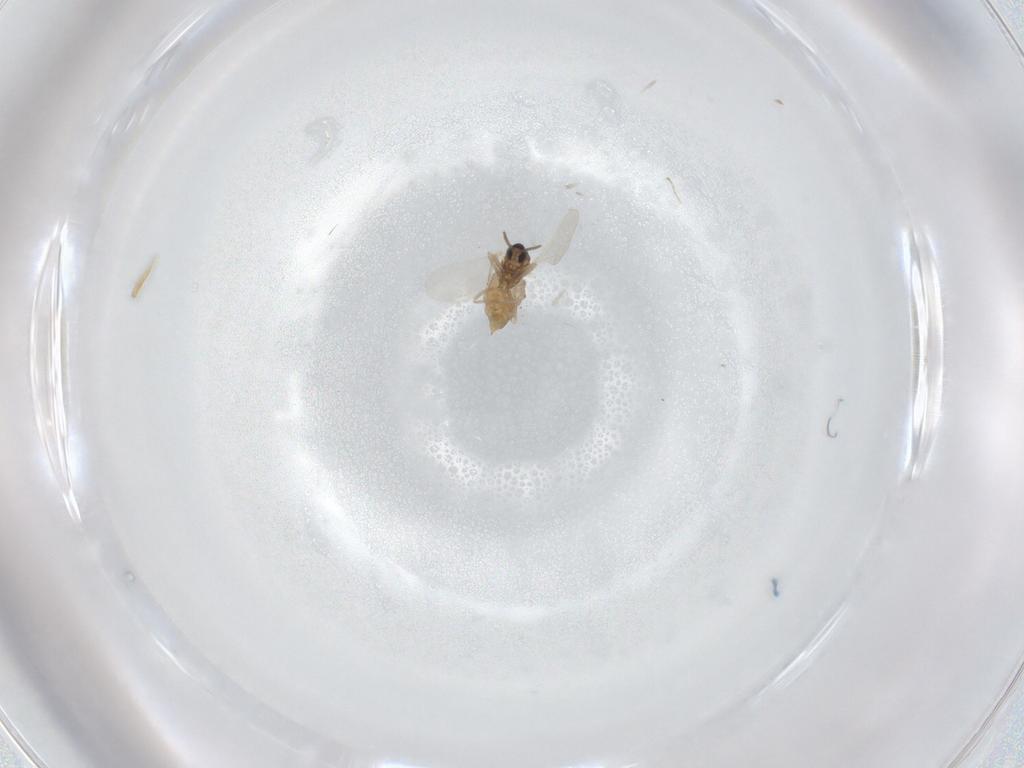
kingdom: Animalia
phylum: Arthropoda
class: Insecta
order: Diptera
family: Cecidomyiidae
